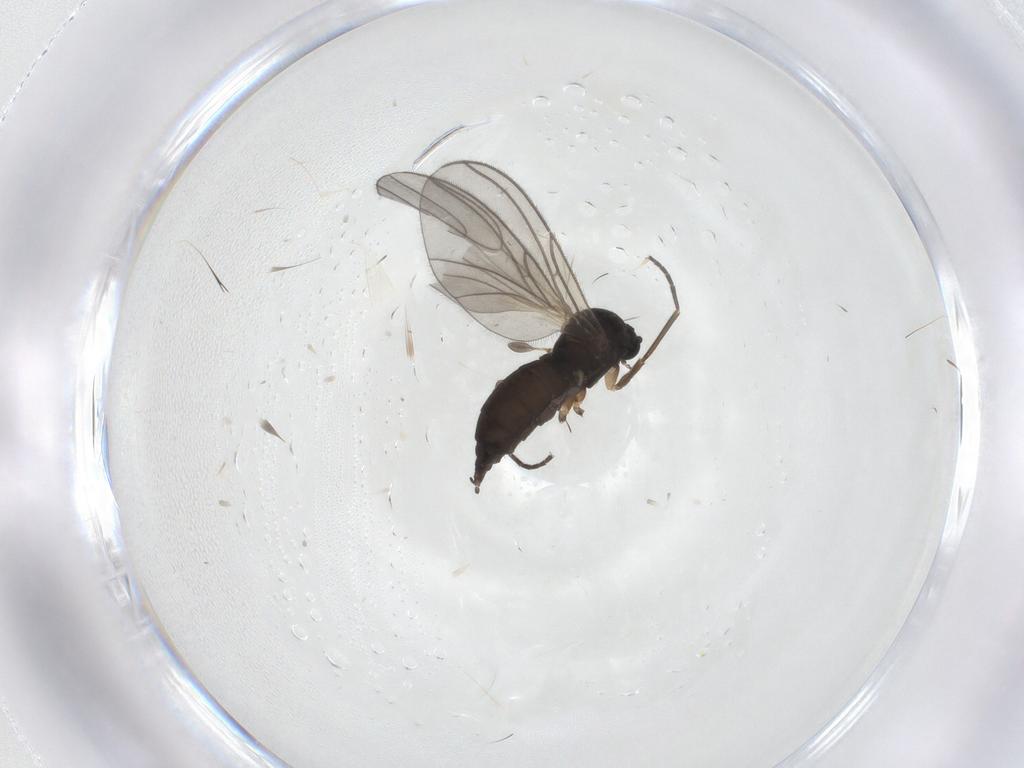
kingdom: Animalia
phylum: Arthropoda
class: Insecta
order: Diptera
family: Sciaridae
